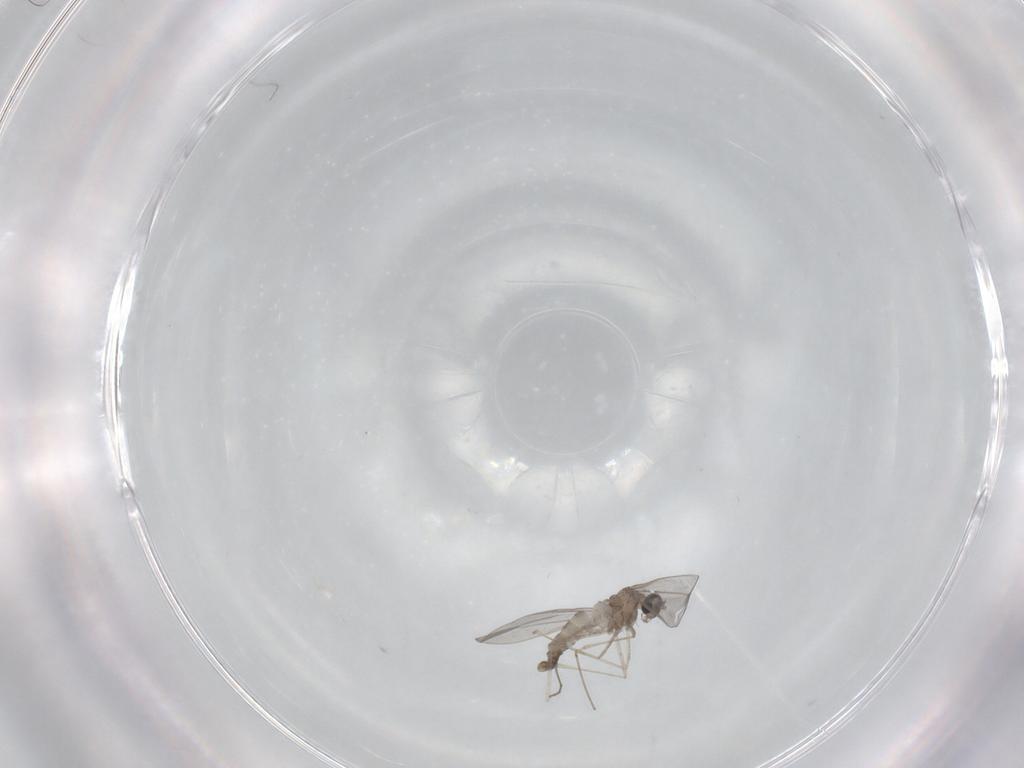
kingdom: Animalia
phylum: Arthropoda
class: Insecta
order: Diptera
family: Cecidomyiidae
